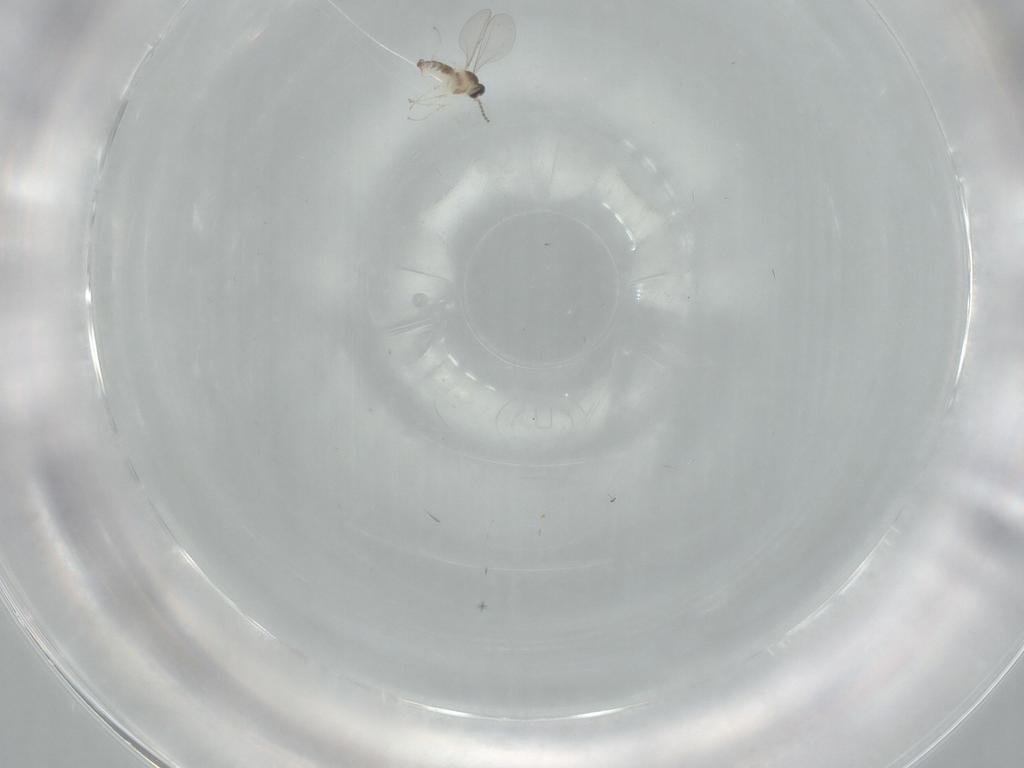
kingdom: Animalia
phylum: Arthropoda
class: Insecta
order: Diptera
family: Cecidomyiidae
